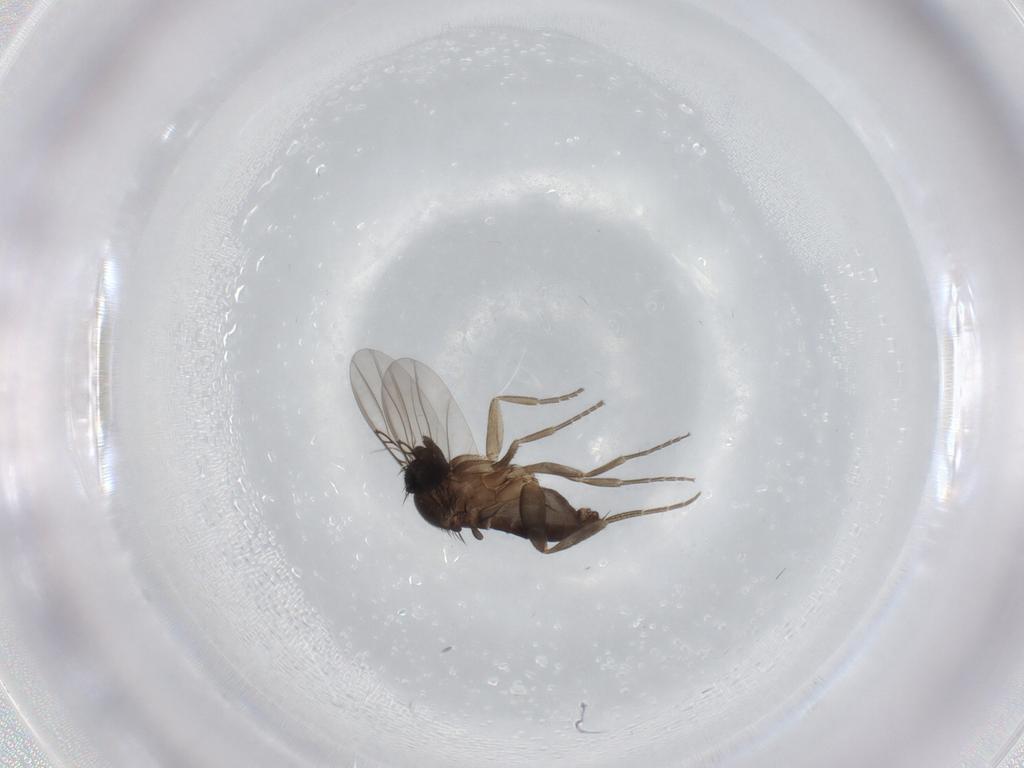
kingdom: Animalia
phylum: Arthropoda
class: Insecta
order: Diptera
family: Phoridae
